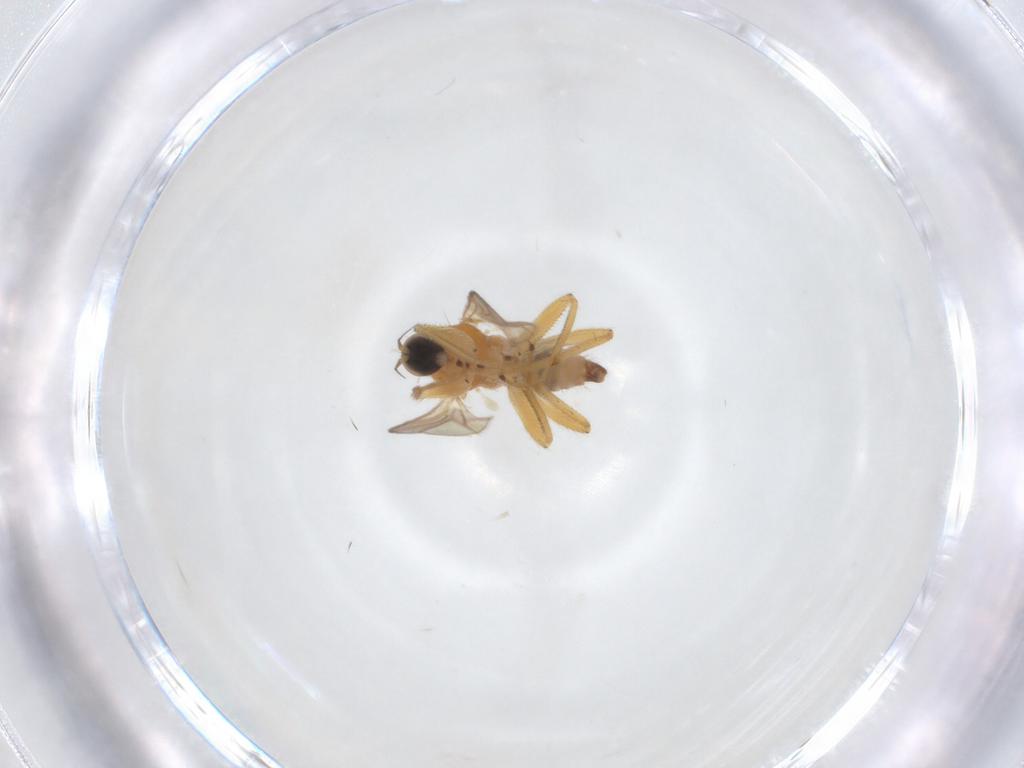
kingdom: Animalia
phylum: Arthropoda
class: Insecta
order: Diptera
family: Hybotidae
